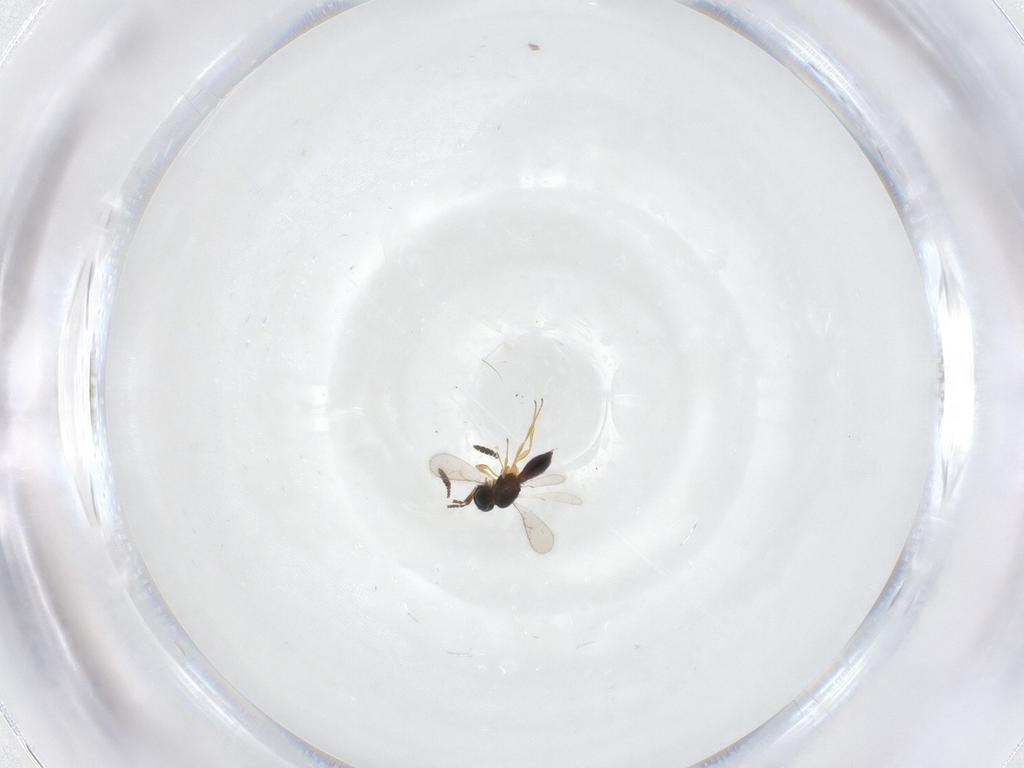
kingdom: Animalia
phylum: Arthropoda
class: Insecta
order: Hymenoptera
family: Scelionidae
